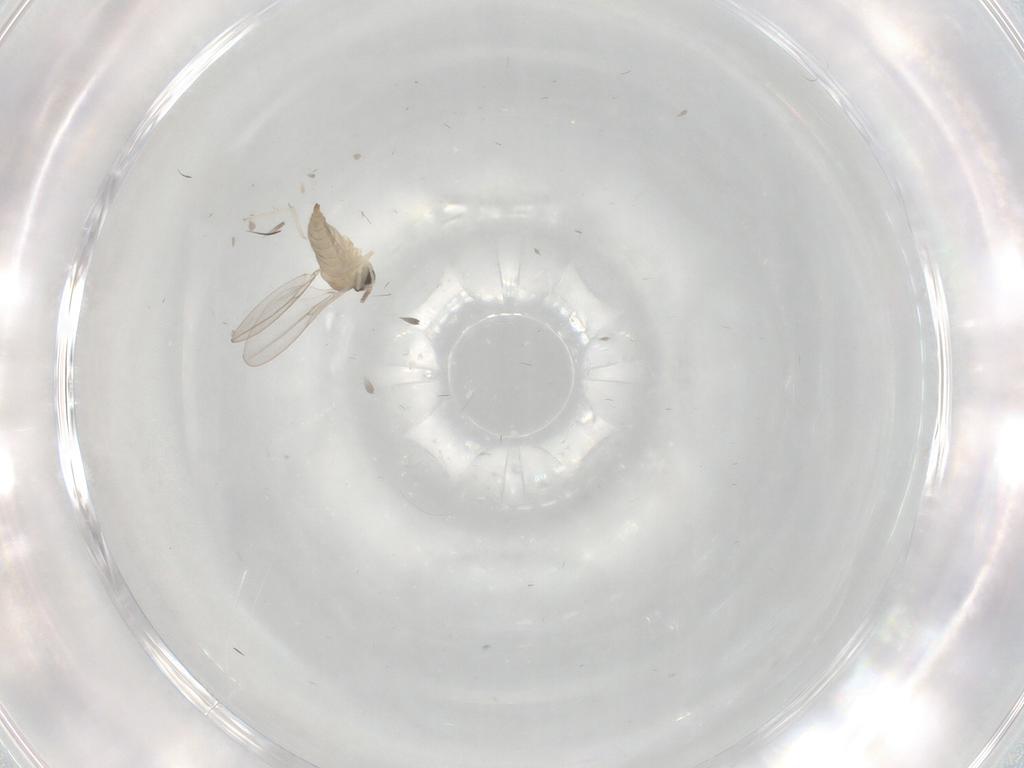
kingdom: Animalia
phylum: Arthropoda
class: Insecta
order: Diptera
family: Cecidomyiidae
